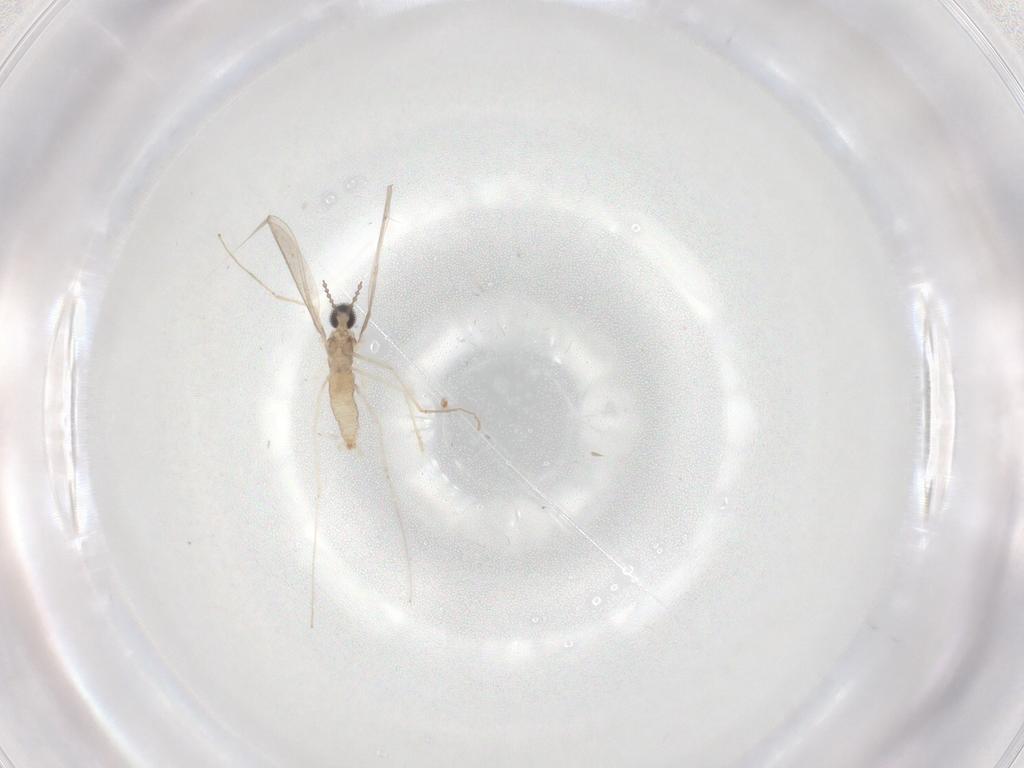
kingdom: Animalia
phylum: Arthropoda
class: Insecta
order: Diptera
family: Cecidomyiidae
